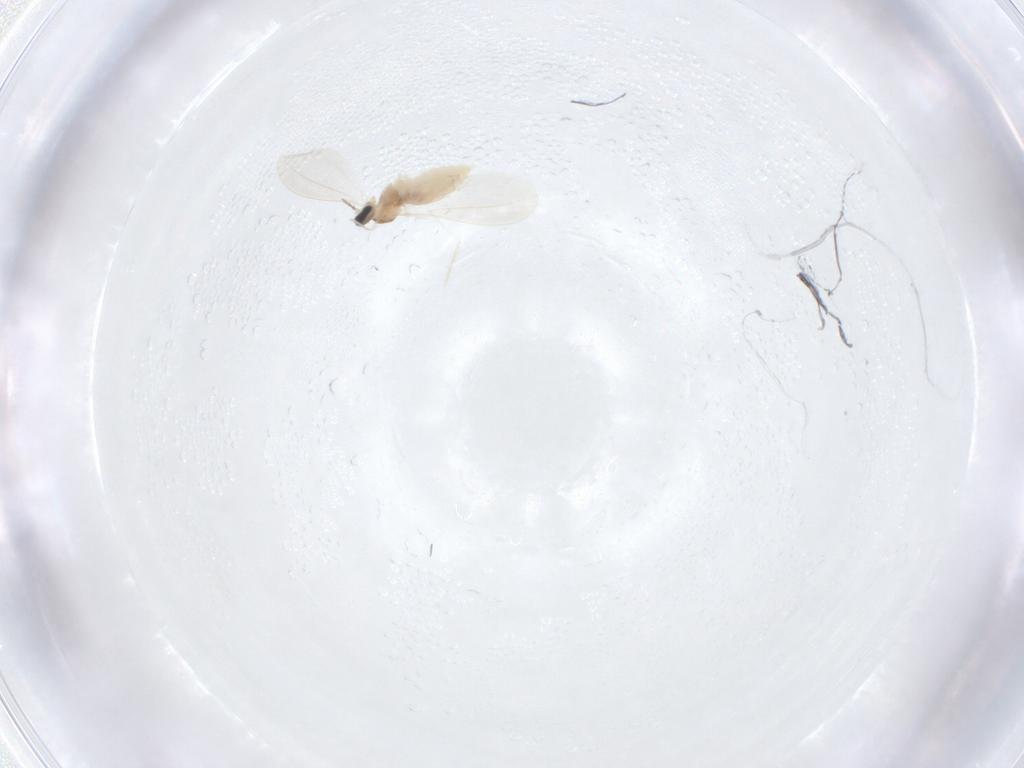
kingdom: Animalia
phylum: Arthropoda
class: Insecta
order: Diptera
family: Cecidomyiidae
